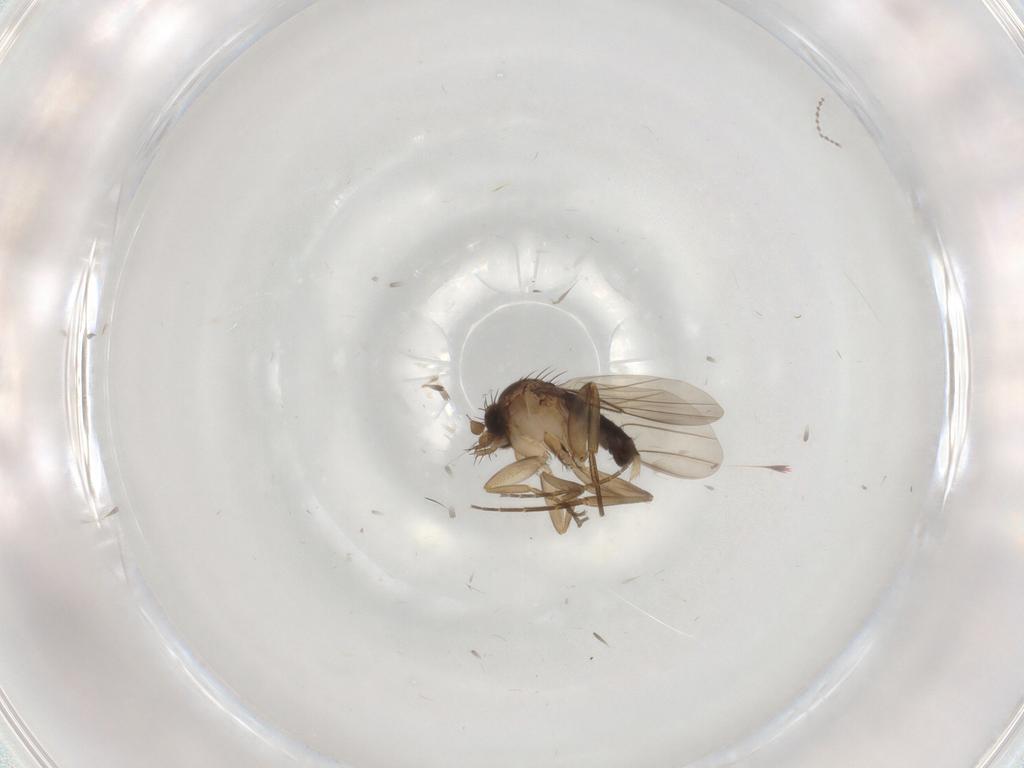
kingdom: Animalia
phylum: Arthropoda
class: Insecta
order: Diptera
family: Phoridae
